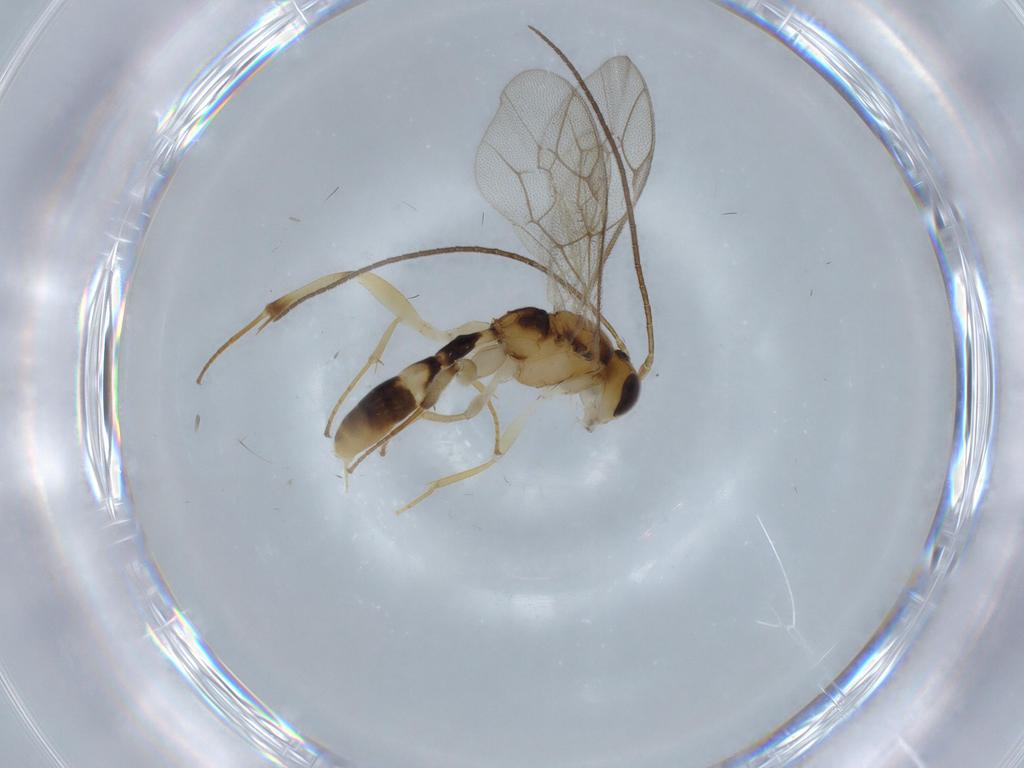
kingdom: Animalia
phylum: Arthropoda
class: Insecta
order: Hymenoptera
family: Ichneumonidae
